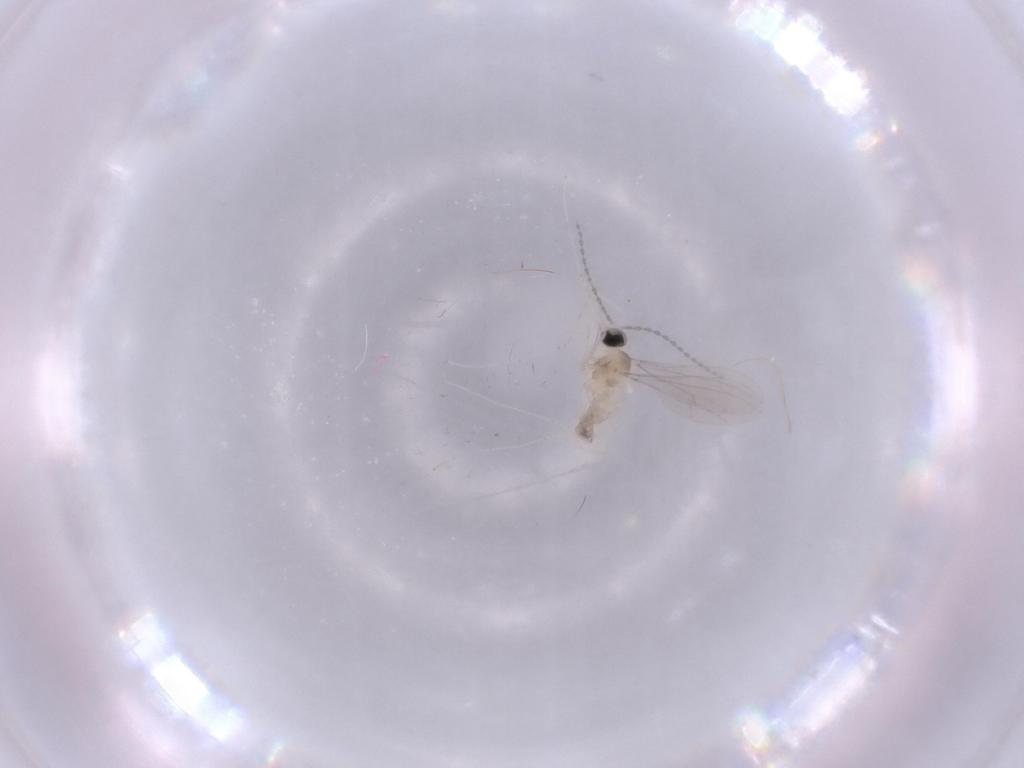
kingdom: Animalia
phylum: Arthropoda
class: Insecta
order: Diptera
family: Cecidomyiidae
